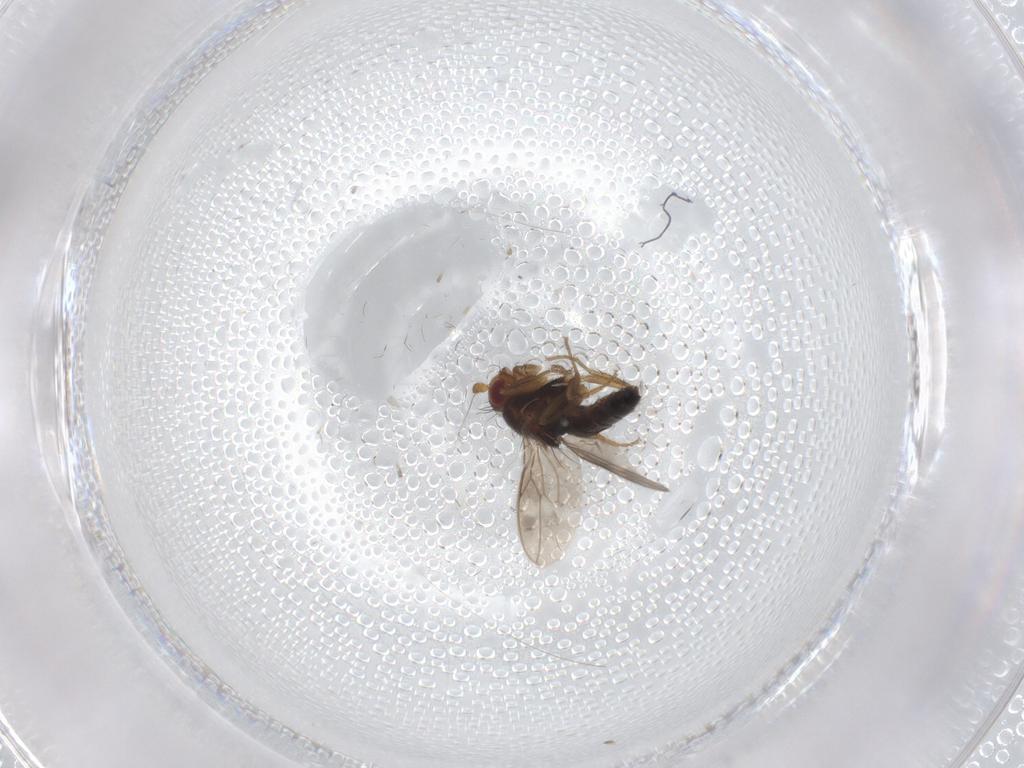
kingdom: Animalia
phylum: Arthropoda
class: Insecta
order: Diptera
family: Sphaeroceridae
